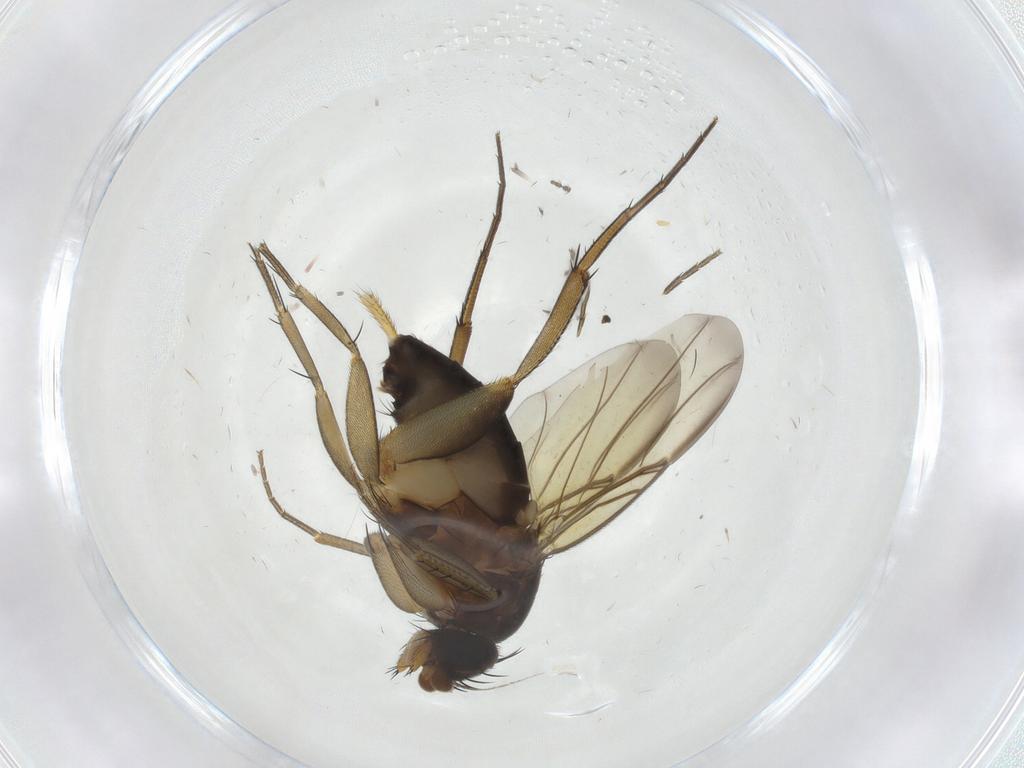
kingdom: Animalia
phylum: Arthropoda
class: Insecta
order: Diptera
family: Phoridae
